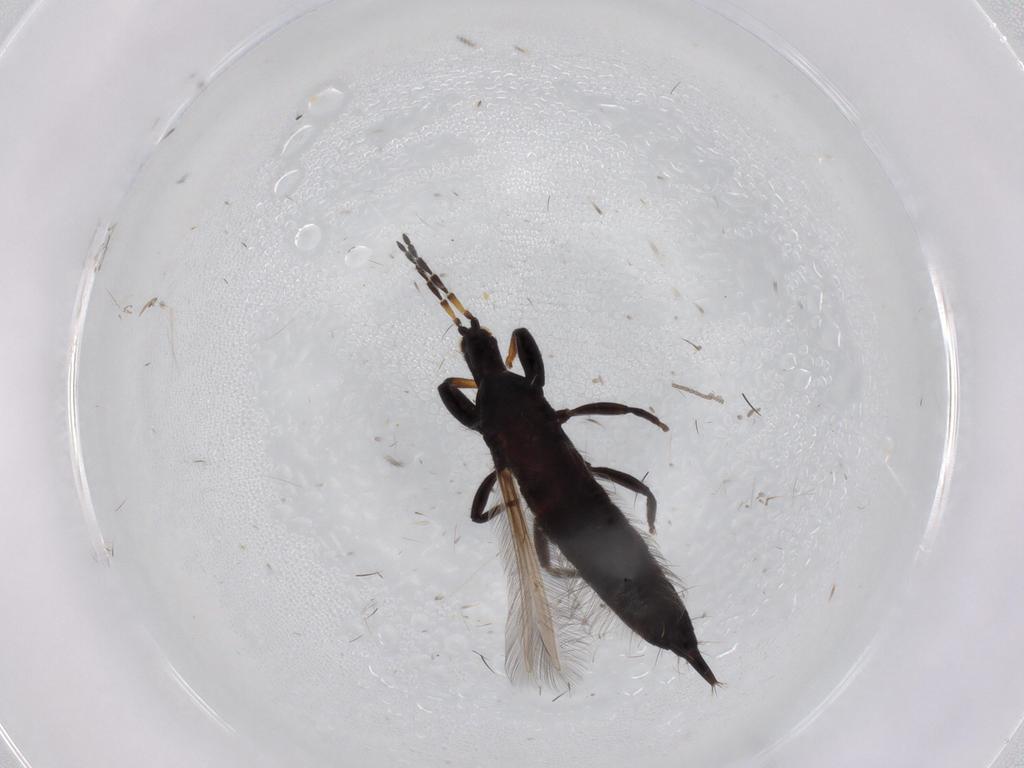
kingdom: Animalia
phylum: Arthropoda
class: Insecta
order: Thysanoptera
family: Phlaeothripidae
